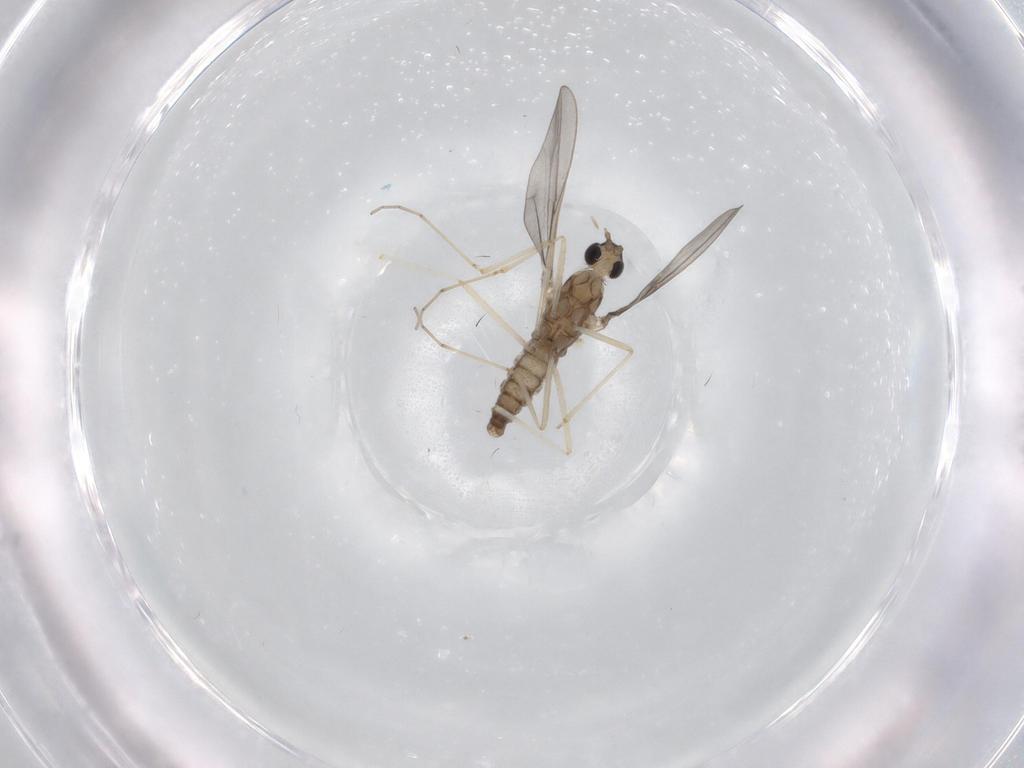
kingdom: Animalia
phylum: Arthropoda
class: Insecta
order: Diptera
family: Cecidomyiidae
